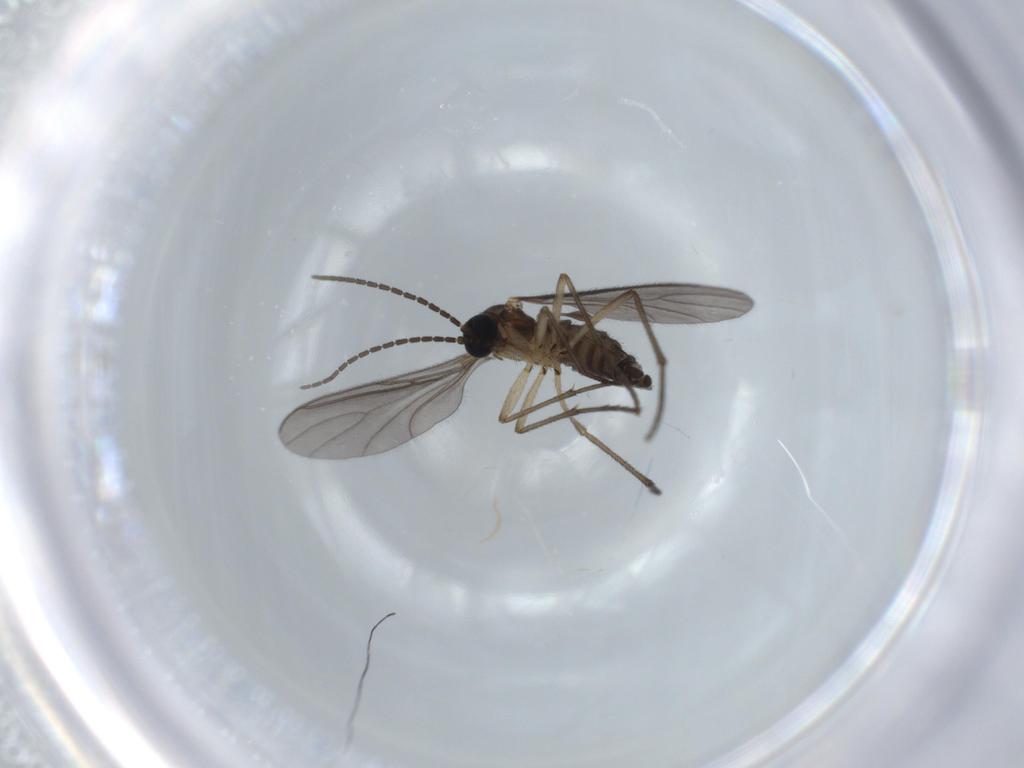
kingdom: Animalia
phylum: Arthropoda
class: Insecta
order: Diptera
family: Sciaridae
